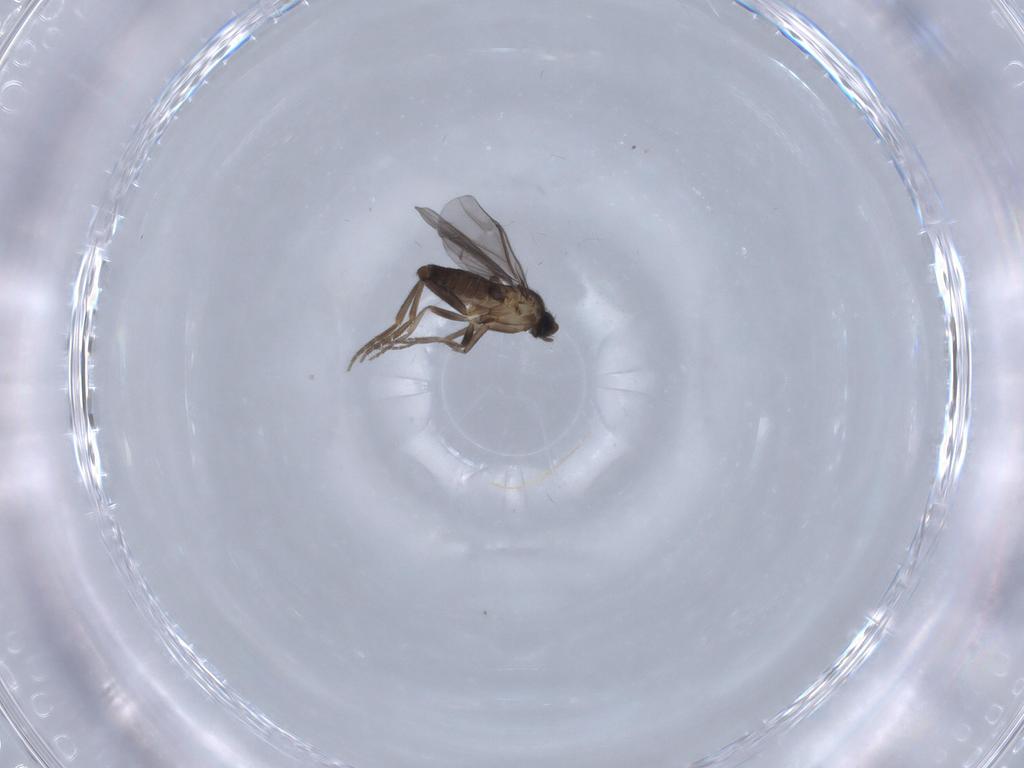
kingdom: Animalia
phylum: Arthropoda
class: Insecta
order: Diptera
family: Limoniidae
